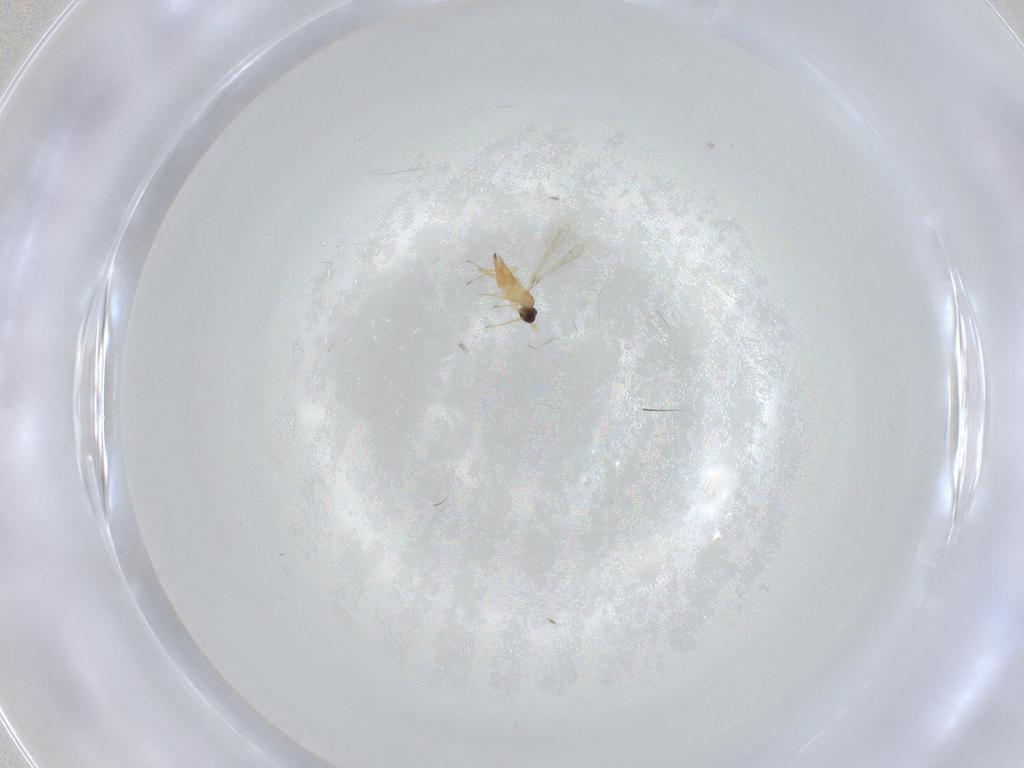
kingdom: Animalia
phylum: Arthropoda
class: Insecta
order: Hymenoptera
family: Mymaridae
